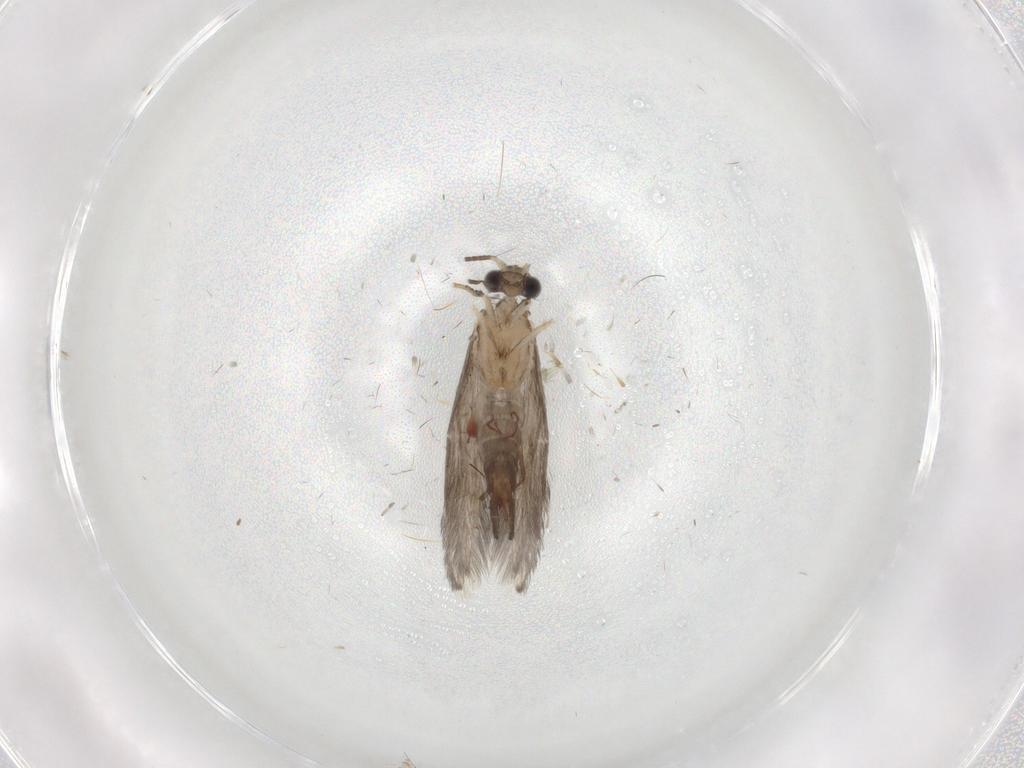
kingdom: Animalia
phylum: Arthropoda
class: Insecta
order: Trichoptera
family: Hydroptilidae
